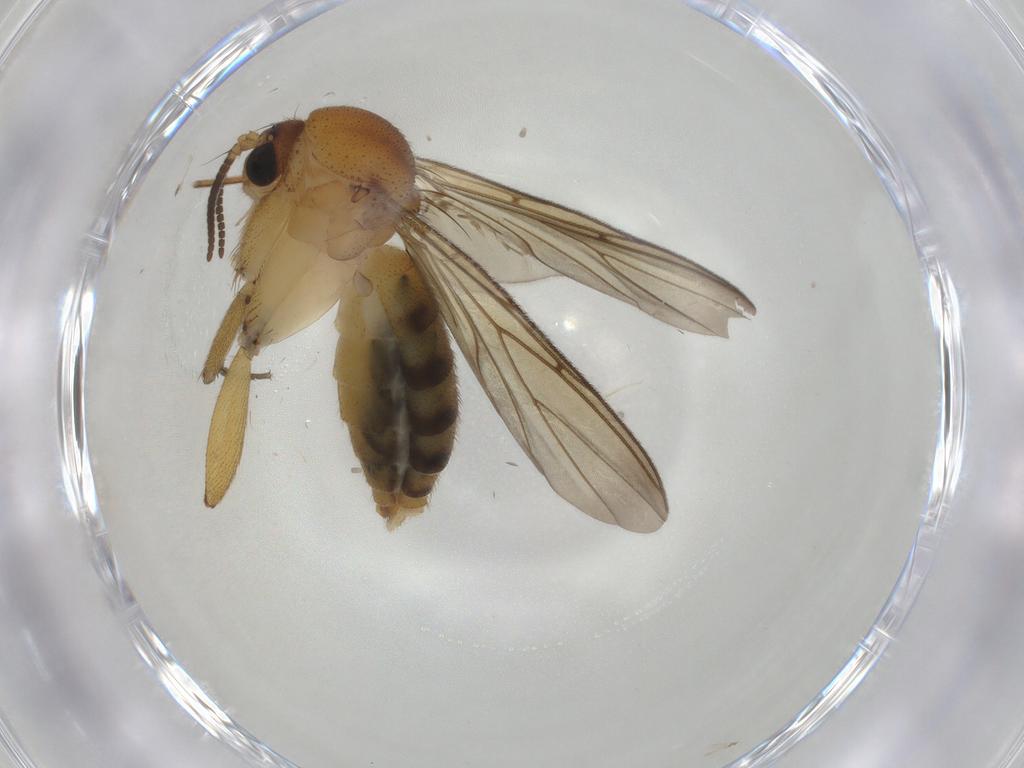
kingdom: Animalia
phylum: Arthropoda
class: Insecta
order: Diptera
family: Mycetophilidae
